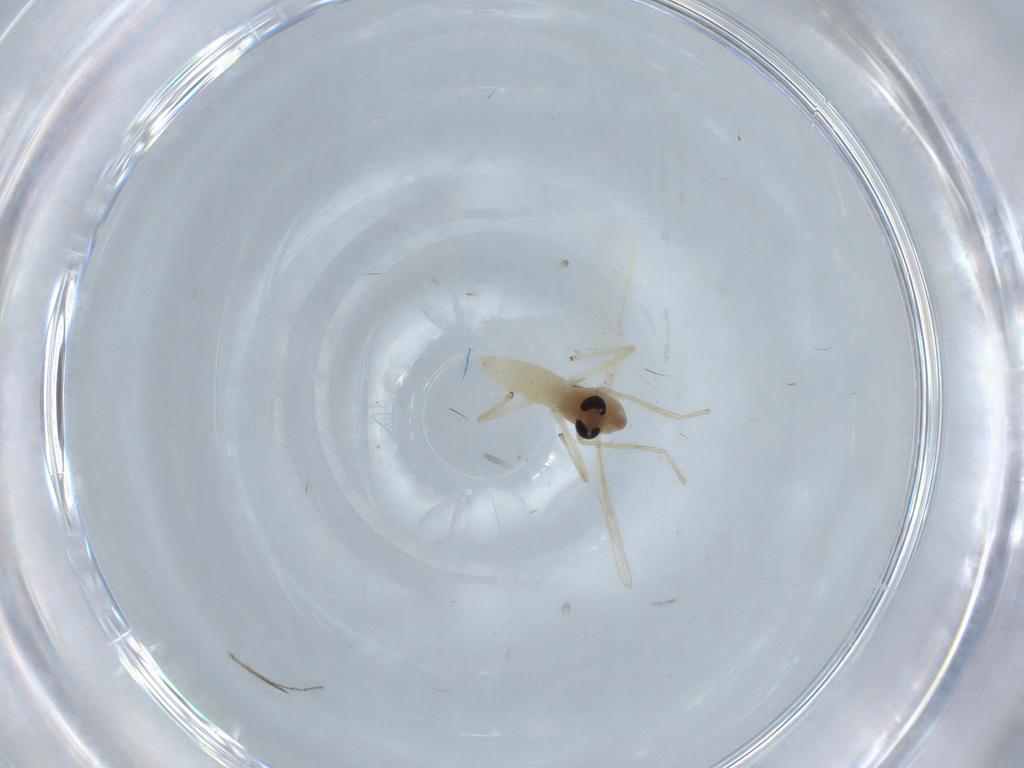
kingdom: Animalia
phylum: Arthropoda
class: Insecta
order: Diptera
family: Chironomidae
